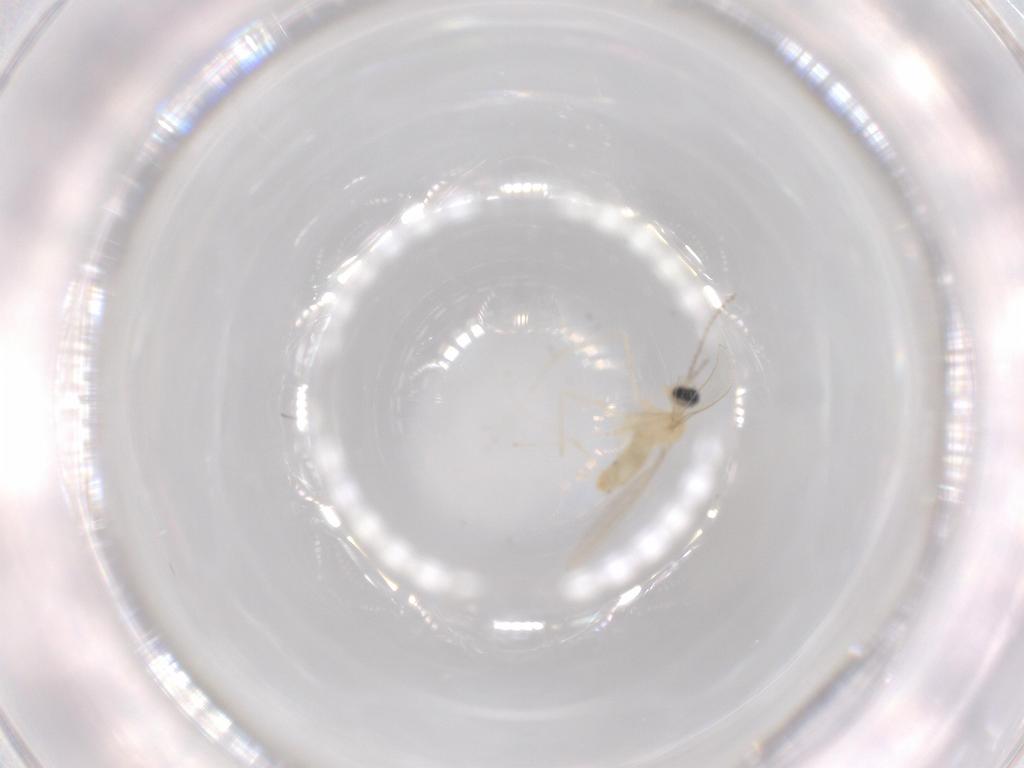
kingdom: Animalia
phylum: Arthropoda
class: Insecta
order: Diptera
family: Cecidomyiidae
